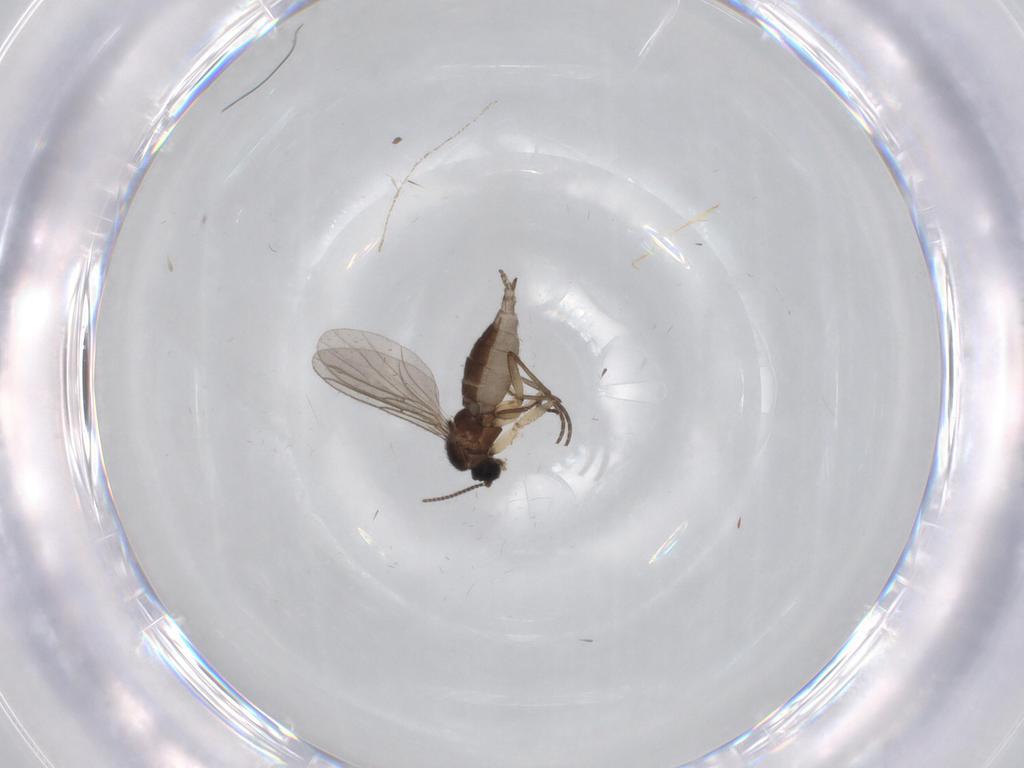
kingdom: Animalia
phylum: Arthropoda
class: Insecta
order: Diptera
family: Sciaridae
